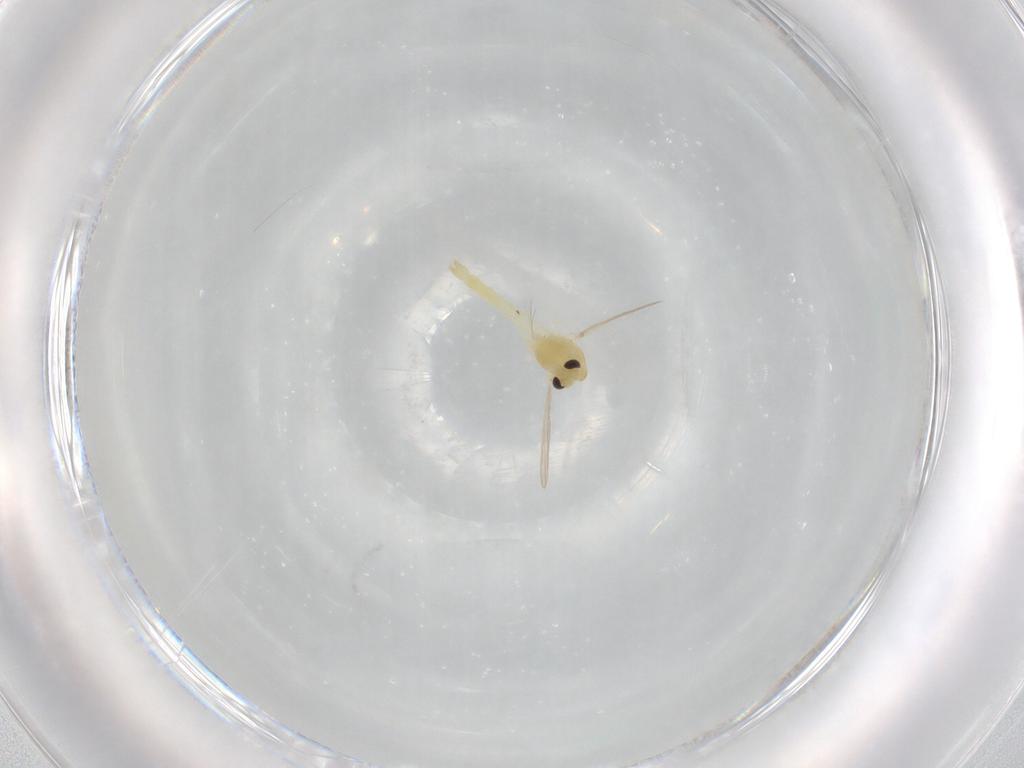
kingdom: Animalia
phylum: Arthropoda
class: Insecta
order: Diptera
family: Chironomidae
